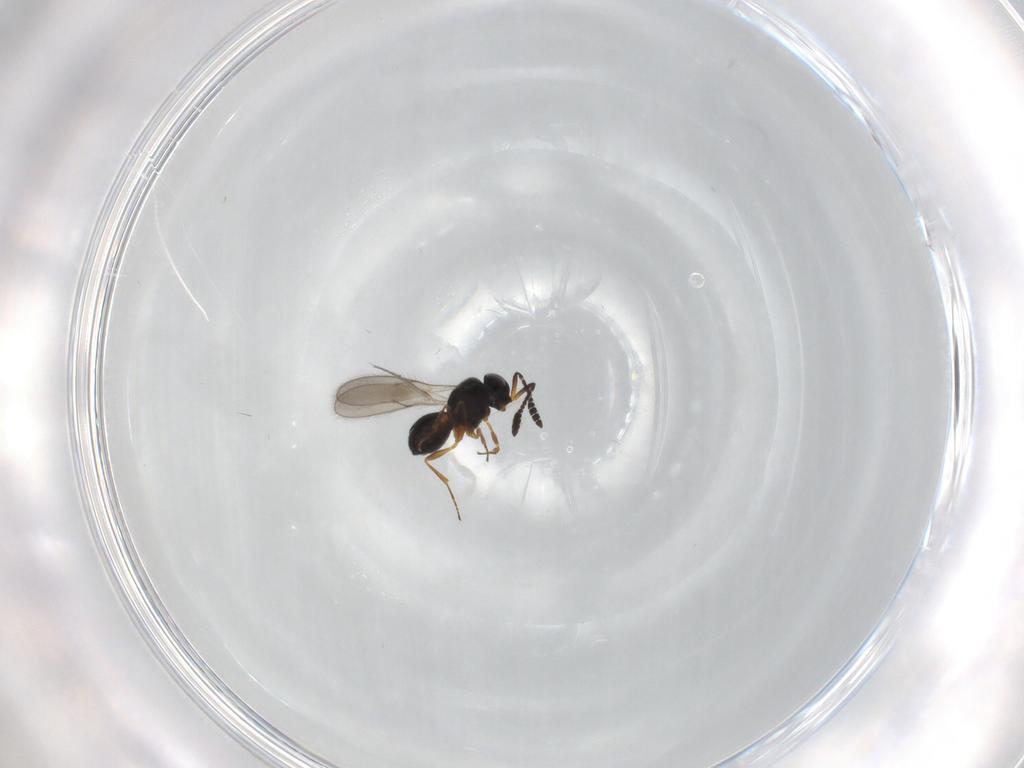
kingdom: Animalia
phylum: Arthropoda
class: Insecta
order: Hymenoptera
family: Scelionidae
